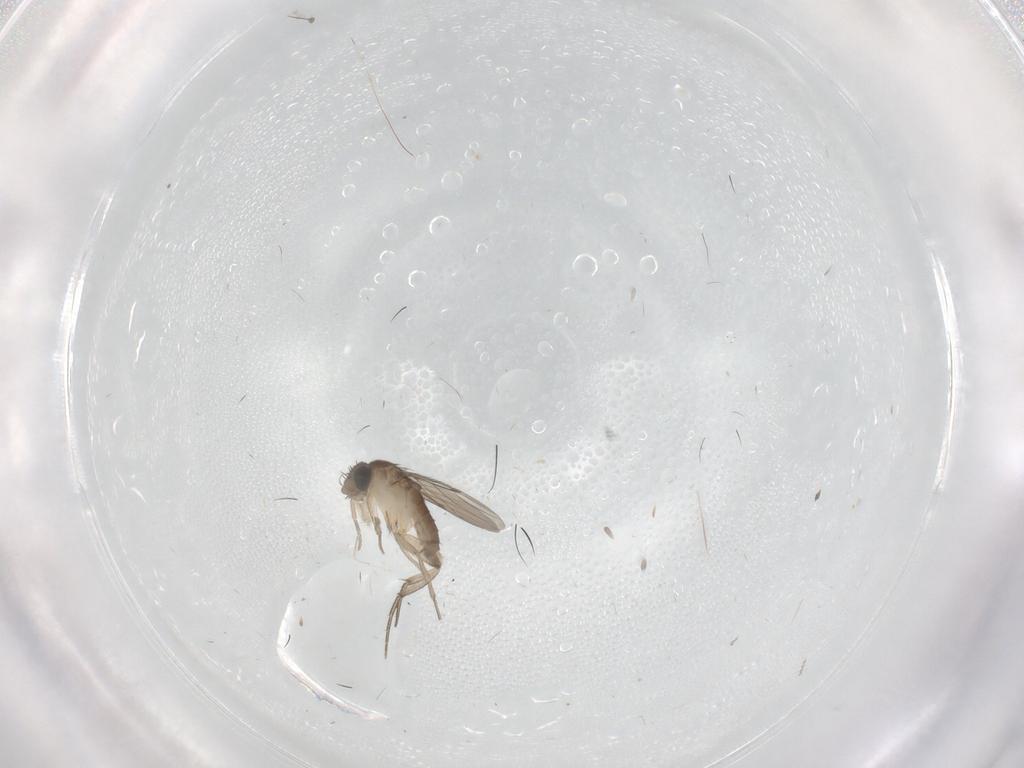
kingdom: Animalia
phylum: Arthropoda
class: Insecta
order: Diptera
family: Phoridae
